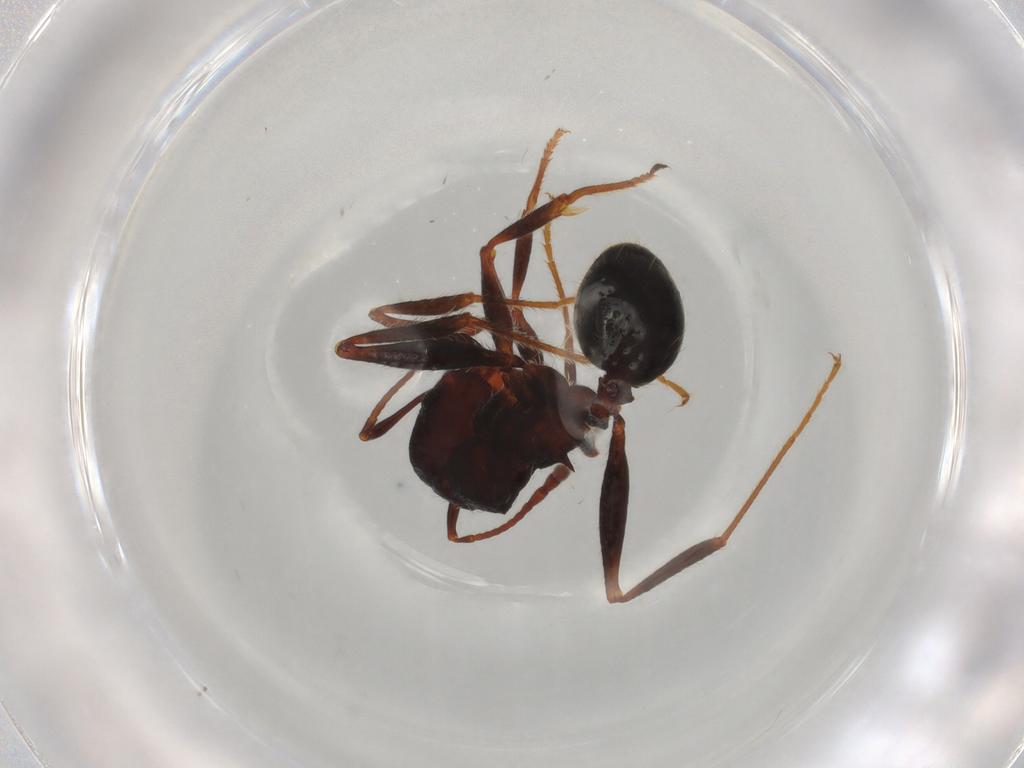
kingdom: Animalia
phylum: Arthropoda
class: Insecta
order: Hymenoptera
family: Formicidae
